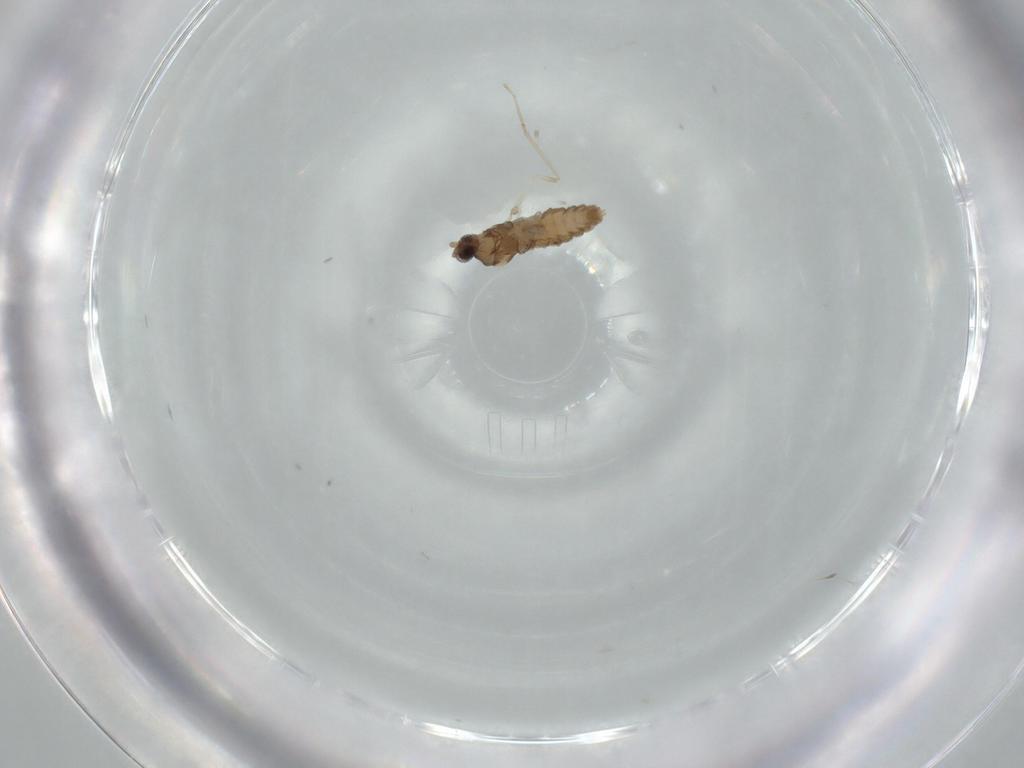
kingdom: Animalia
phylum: Arthropoda
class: Insecta
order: Diptera
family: Cecidomyiidae
